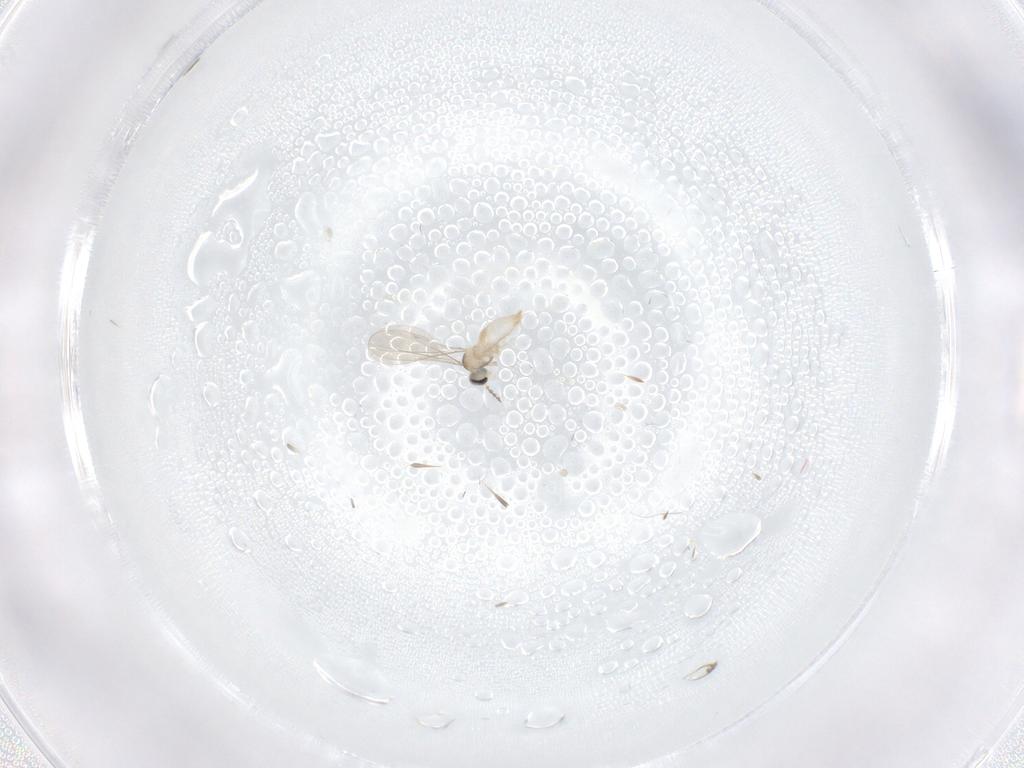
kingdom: Animalia
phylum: Arthropoda
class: Insecta
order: Diptera
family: Cecidomyiidae
